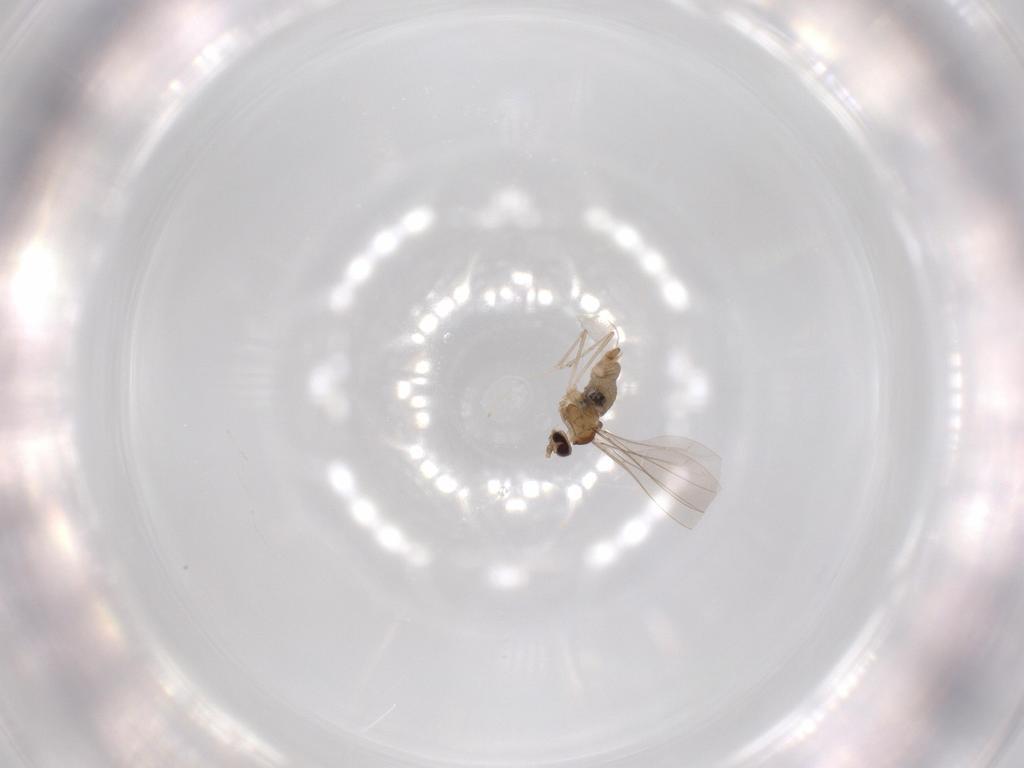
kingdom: Animalia
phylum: Arthropoda
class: Insecta
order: Diptera
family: Cecidomyiidae
